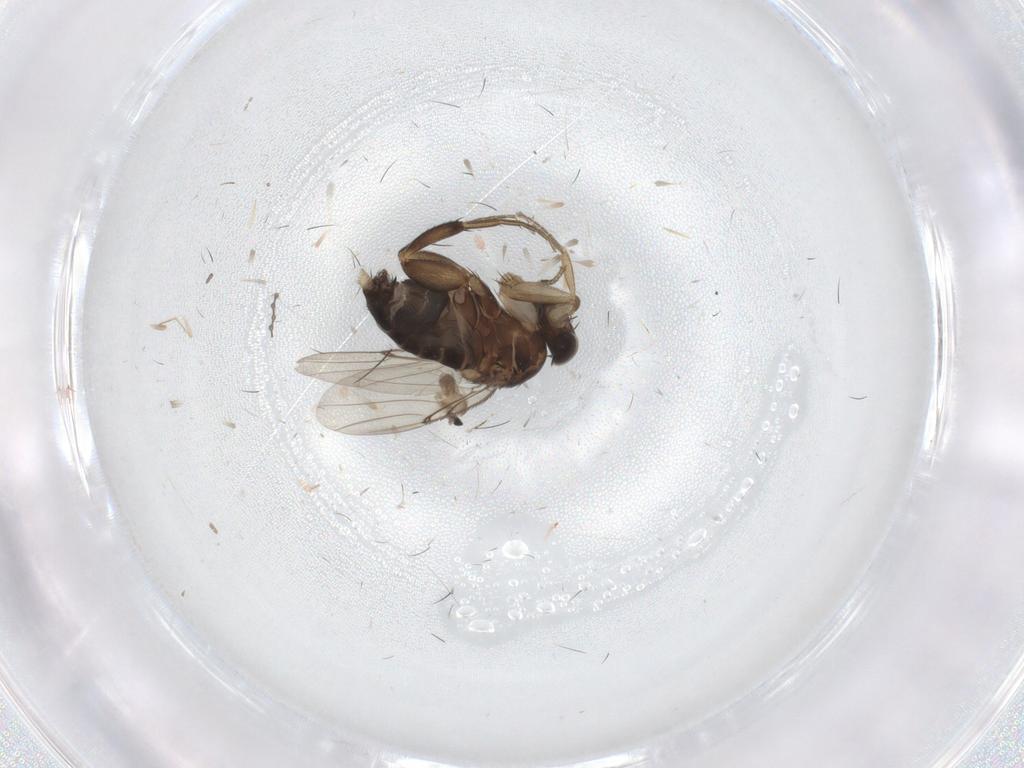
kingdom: Animalia
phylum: Arthropoda
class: Insecta
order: Diptera
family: Phoridae
